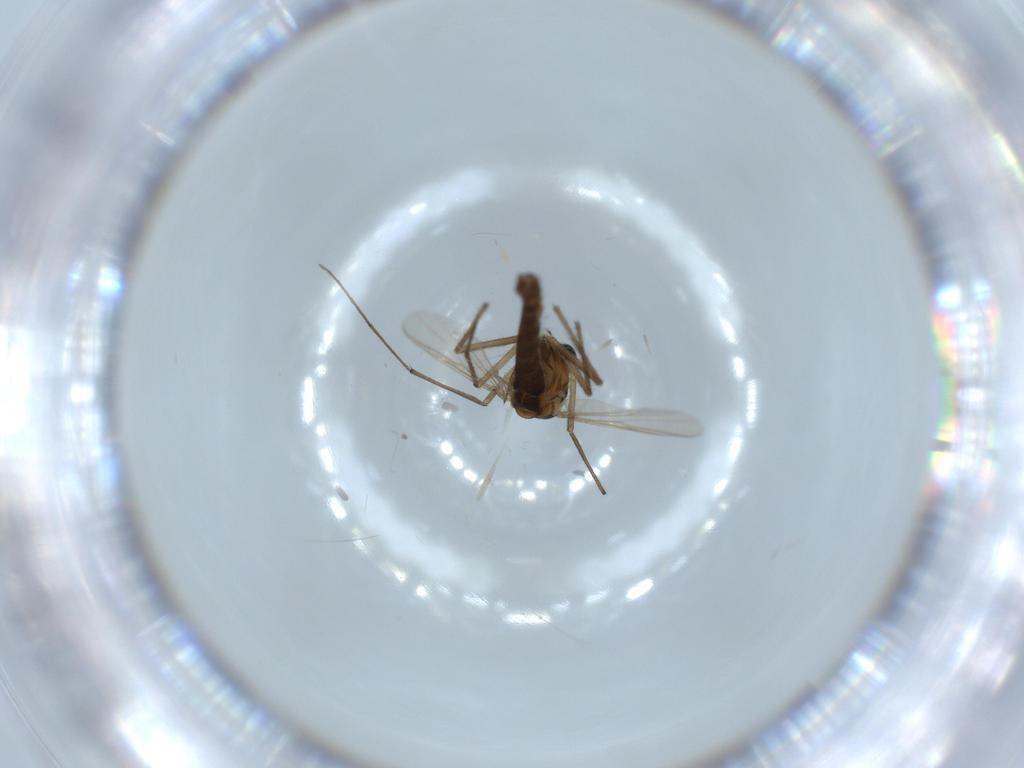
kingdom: Animalia
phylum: Arthropoda
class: Insecta
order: Diptera
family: Chironomidae
